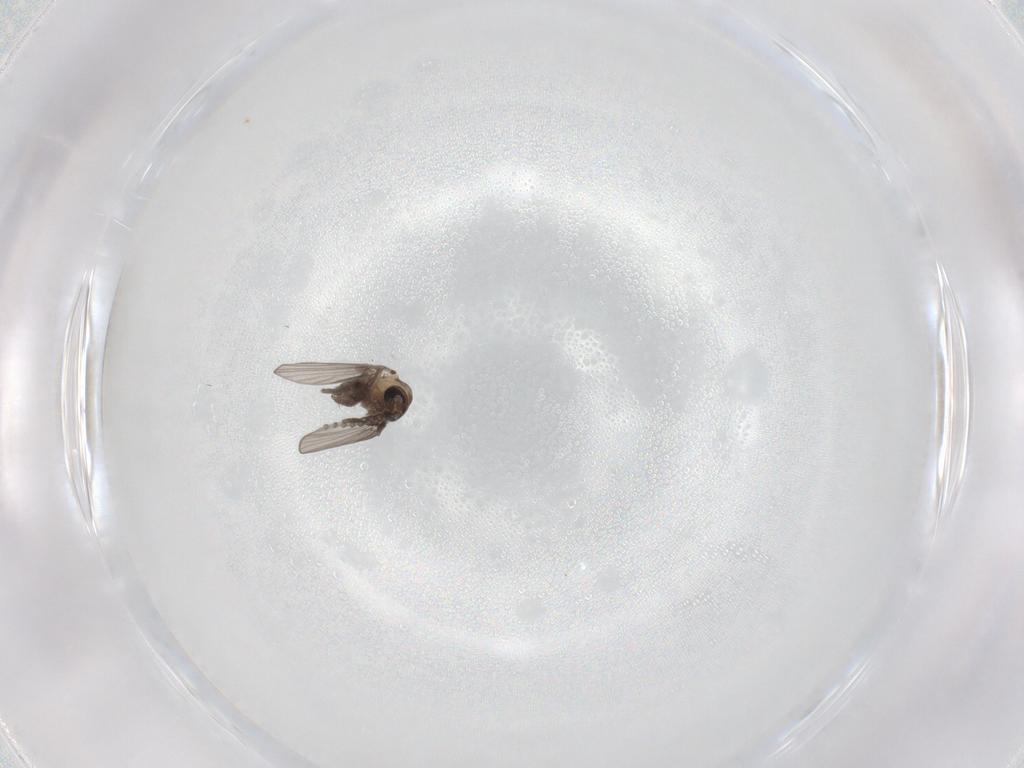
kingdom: Animalia
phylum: Arthropoda
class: Insecta
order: Diptera
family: Psychodidae
